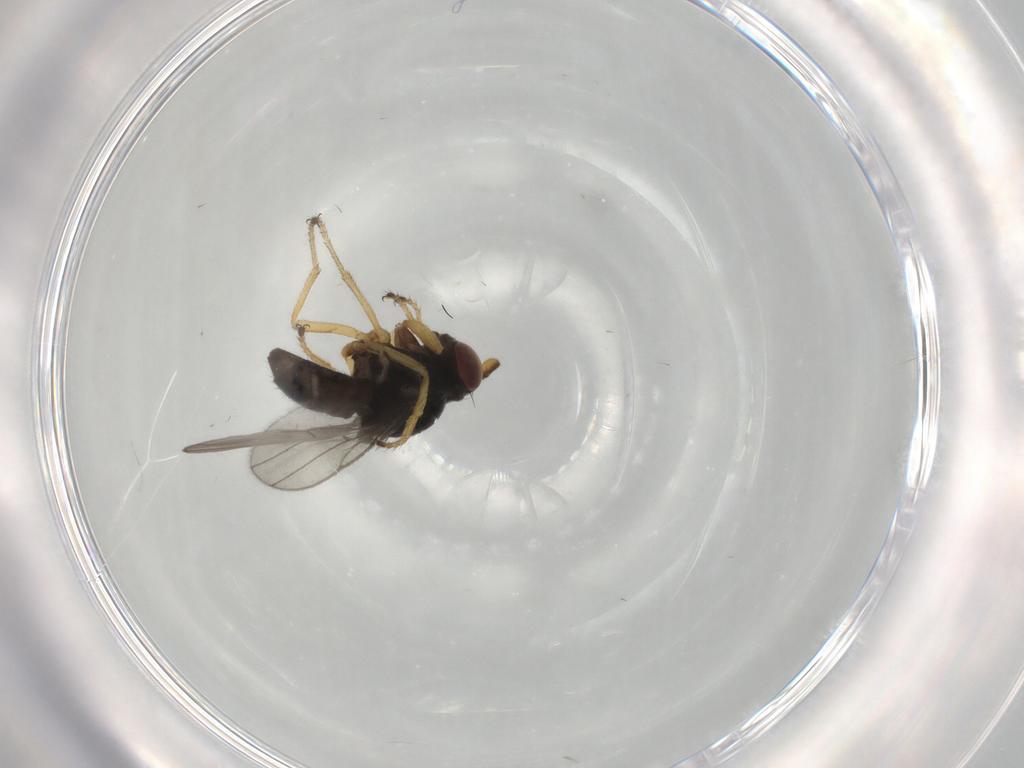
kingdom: Animalia
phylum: Arthropoda
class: Insecta
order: Diptera
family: Ephydridae
